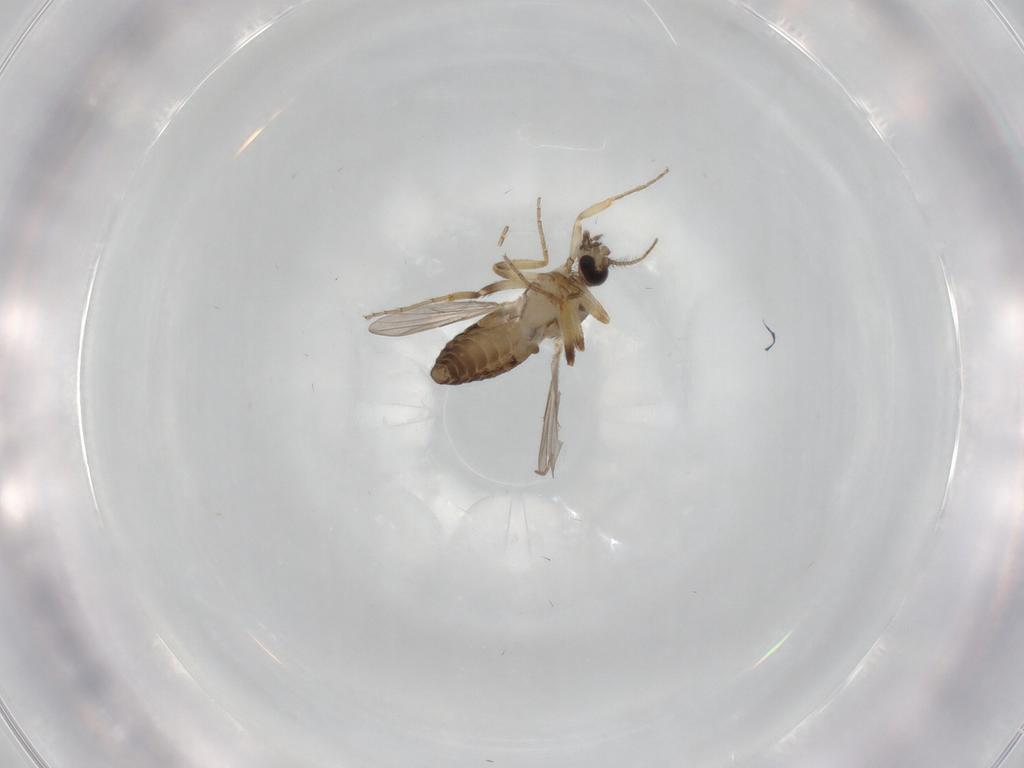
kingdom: Animalia
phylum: Arthropoda
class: Insecta
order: Diptera
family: Ceratopogonidae
